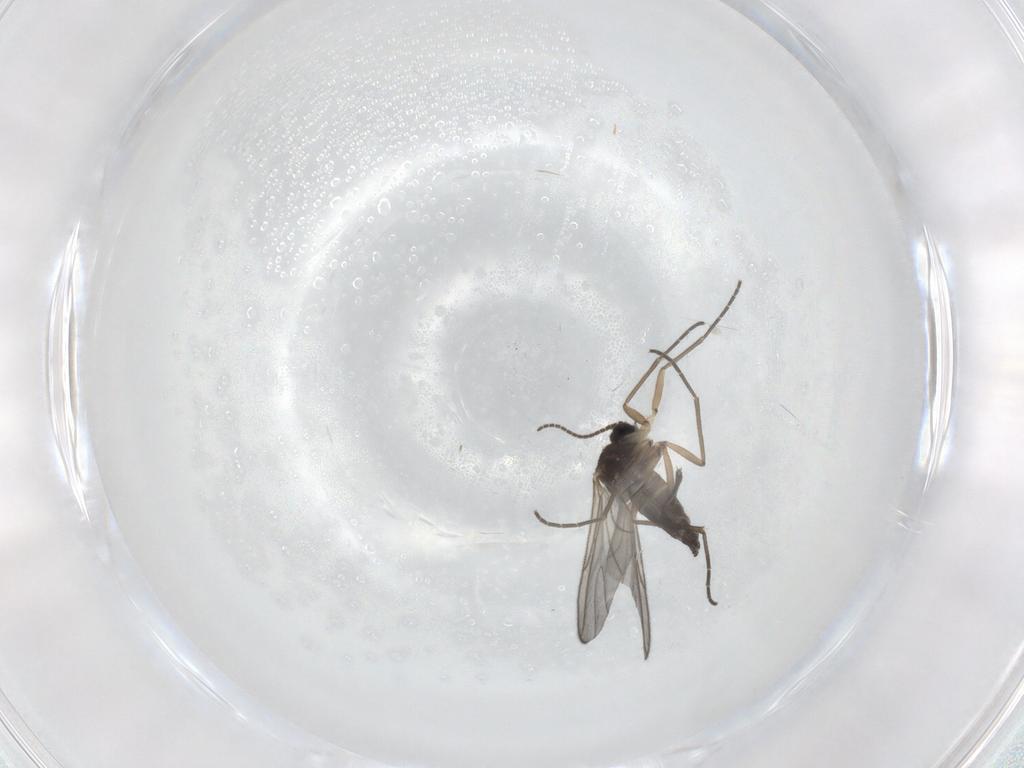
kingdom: Animalia
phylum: Arthropoda
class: Insecta
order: Diptera
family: Sciaridae
